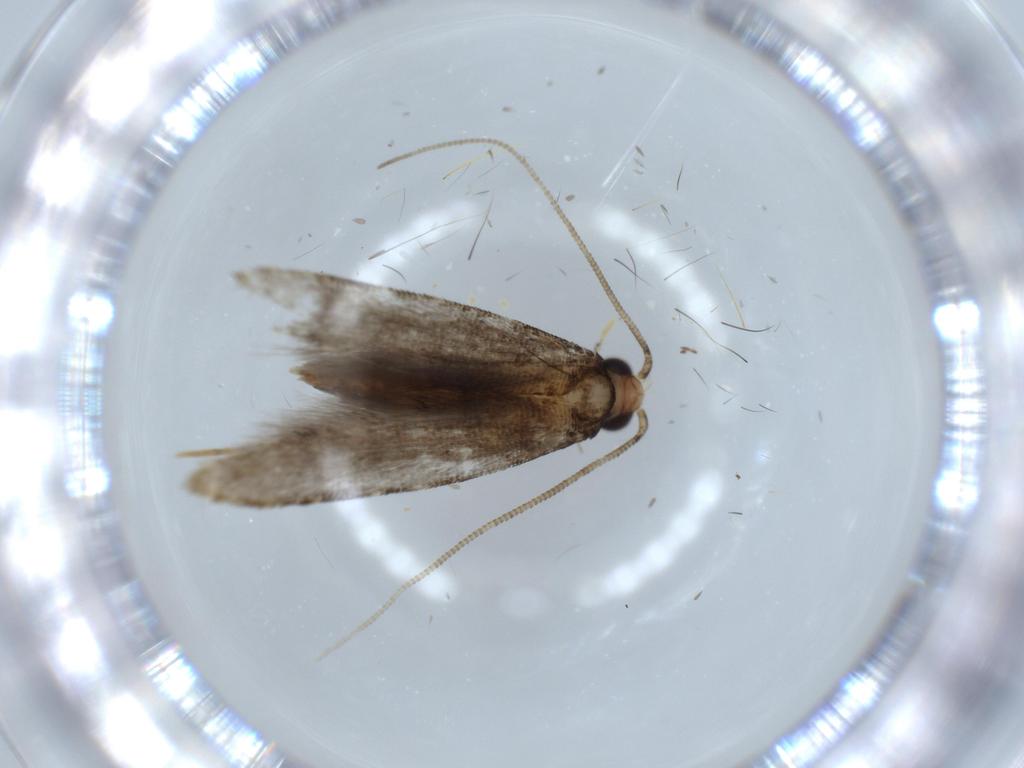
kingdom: Animalia
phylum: Arthropoda
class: Insecta
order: Lepidoptera
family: Tineidae
